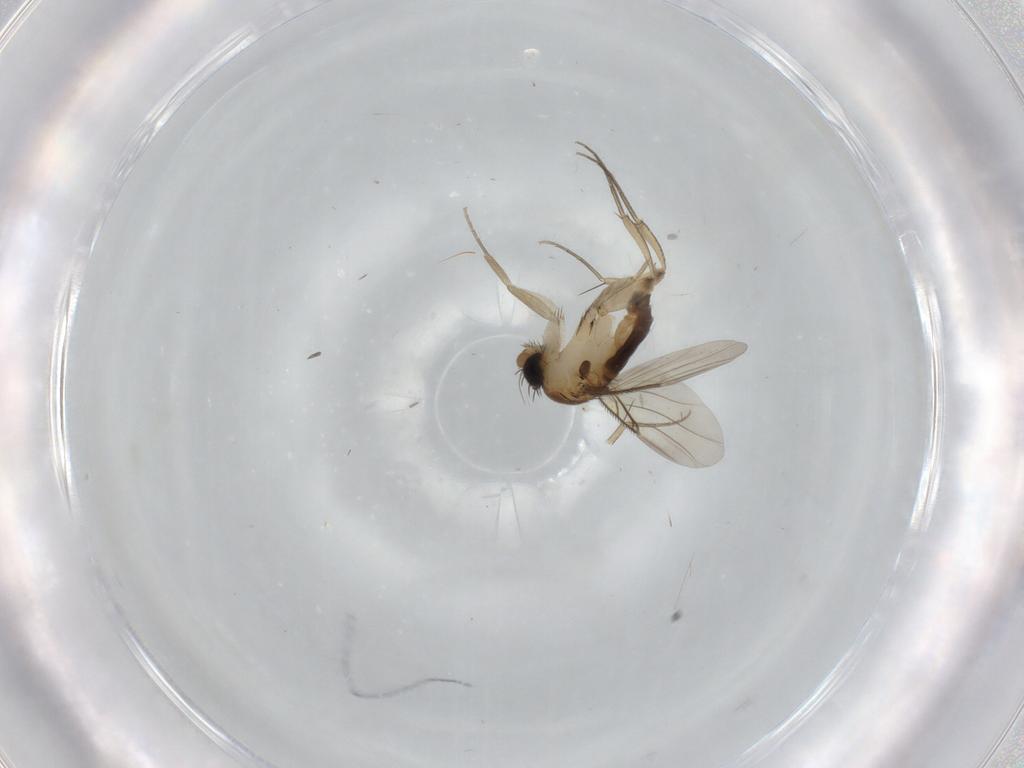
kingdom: Animalia
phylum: Arthropoda
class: Insecta
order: Diptera
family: Phoridae
